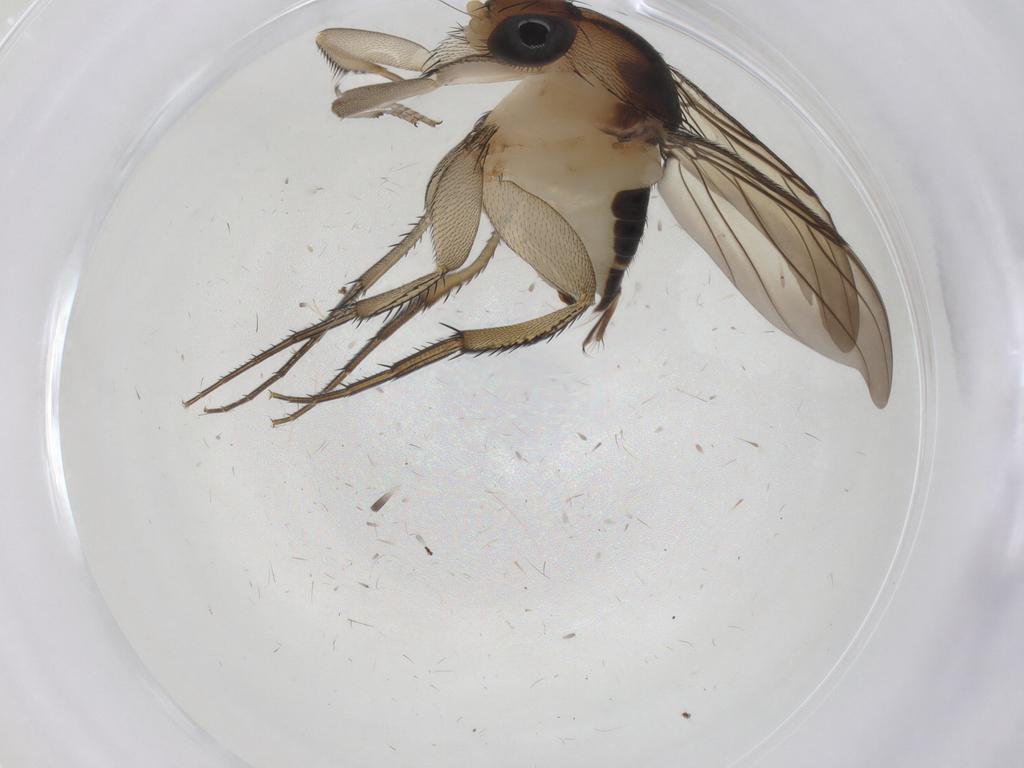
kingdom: Animalia
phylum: Arthropoda
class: Insecta
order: Diptera
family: Phoridae
